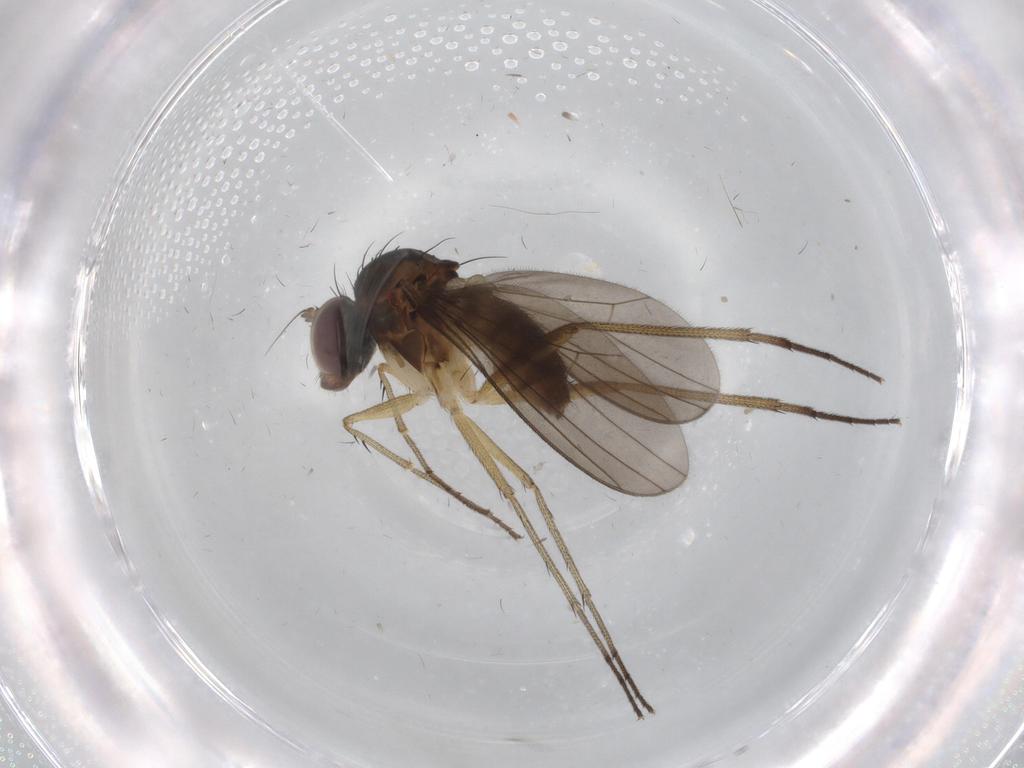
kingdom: Animalia
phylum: Arthropoda
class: Insecta
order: Diptera
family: Dolichopodidae
